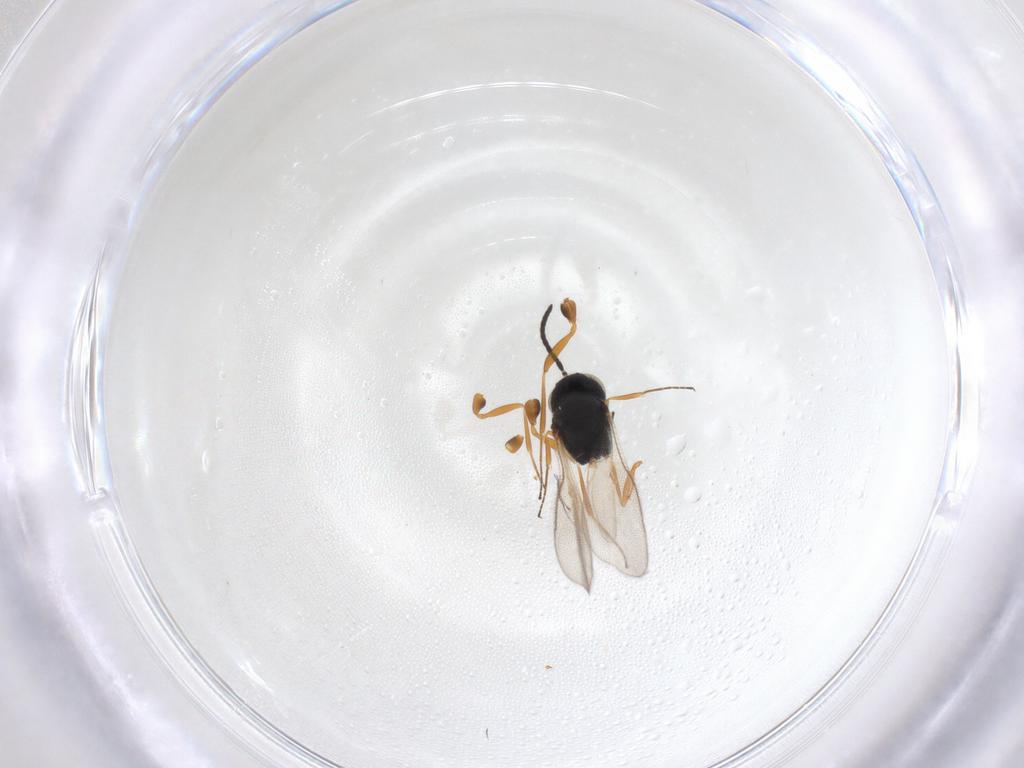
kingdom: Animalia
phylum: Arthropoda
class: Insecta
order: Hymenoptera
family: Scelionidae
